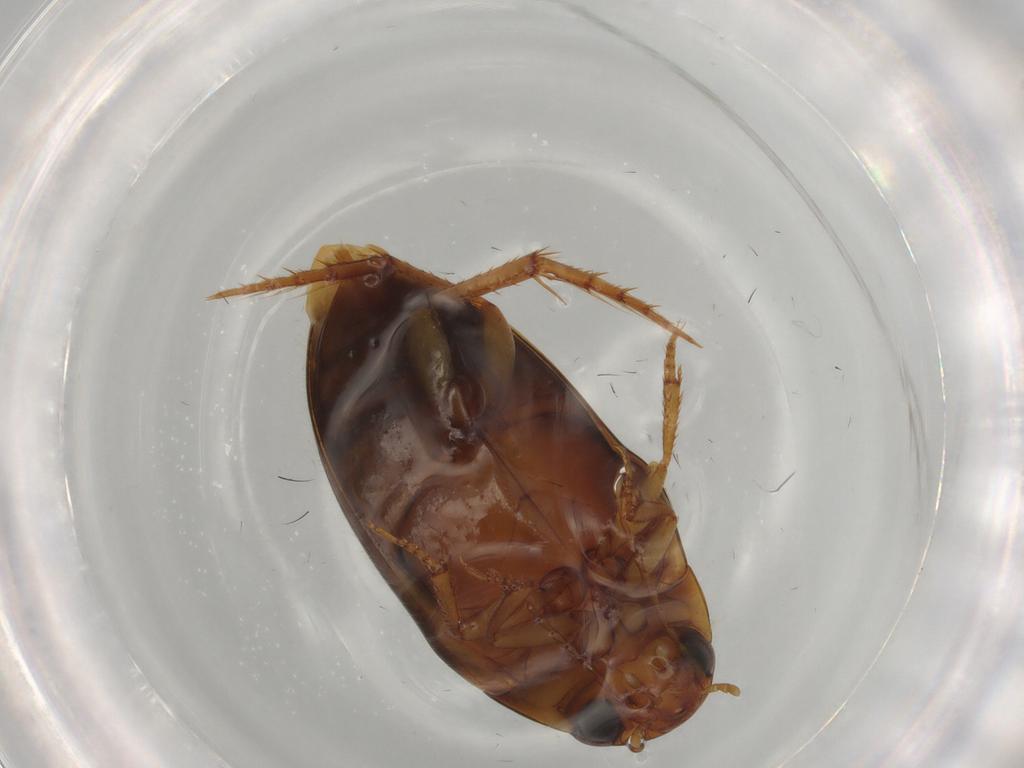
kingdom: Animalia
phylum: Arthropoda
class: Insecta
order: Coleoptera
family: Dytiscidae
